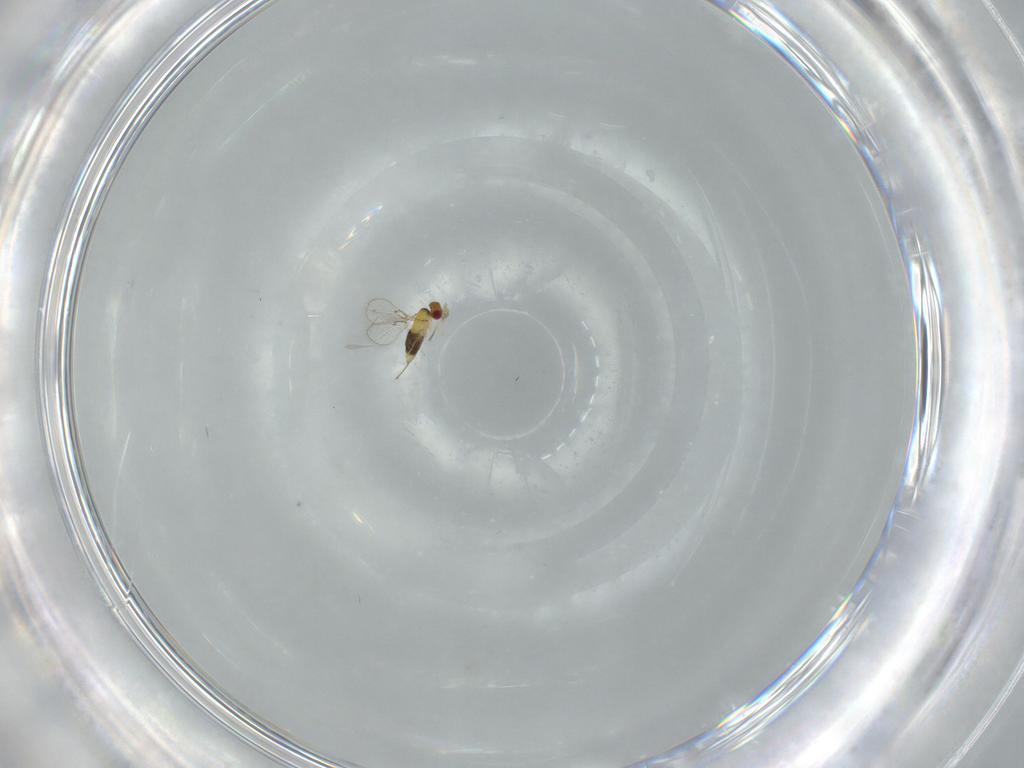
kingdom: Animalia
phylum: Arthropoda
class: Insecta
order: Hymenoptera
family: Trichogrammatidae
